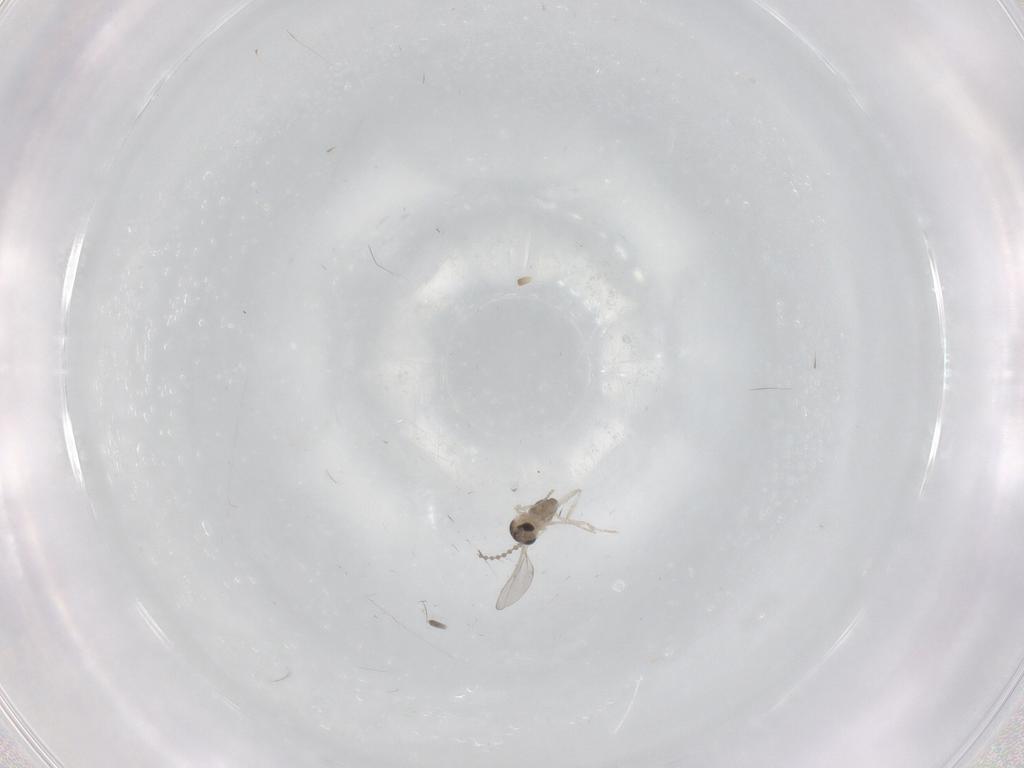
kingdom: Animalia
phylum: Arthropoda
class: Insecta
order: Diptera
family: Cecidomyiidae
